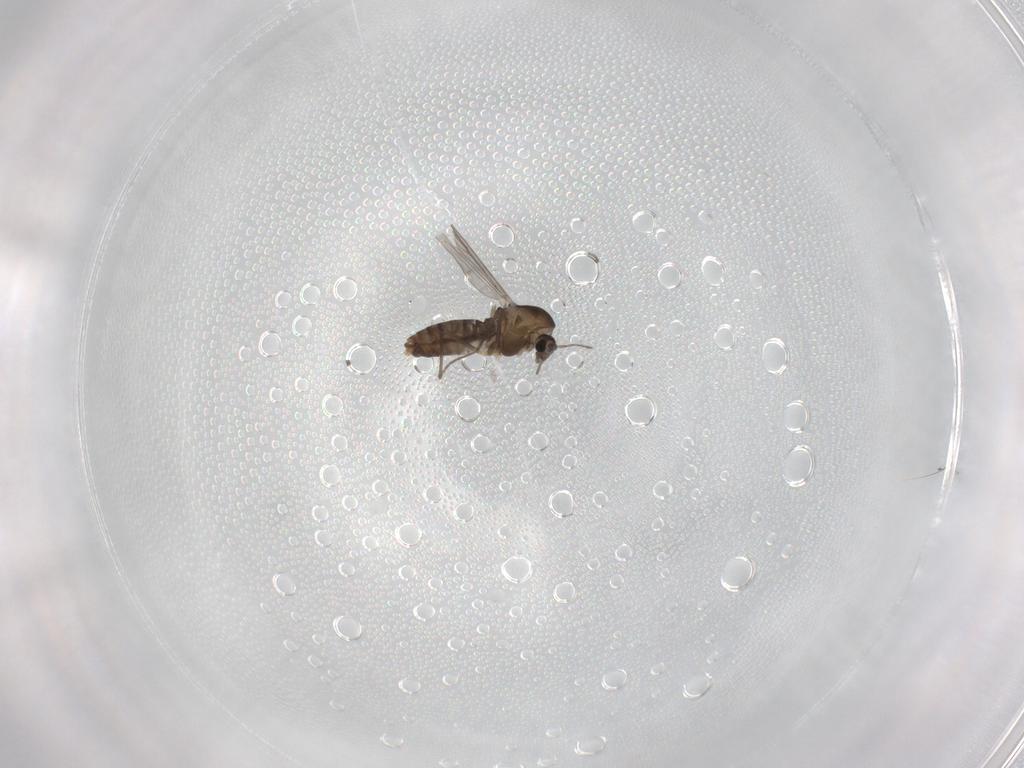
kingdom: Animalia
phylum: Arthropoda
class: Insecta
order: Diptera
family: Chironomidae
